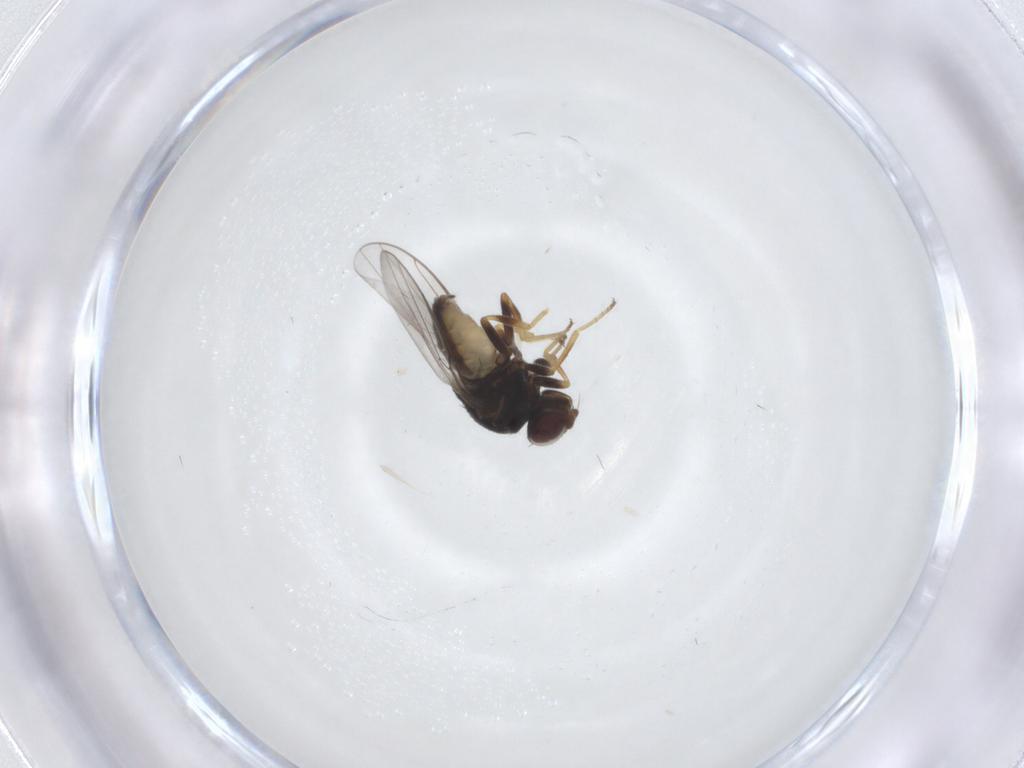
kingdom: Animalia
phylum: Arthropoda
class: Insecta
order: Diptera
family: Chloropidae
